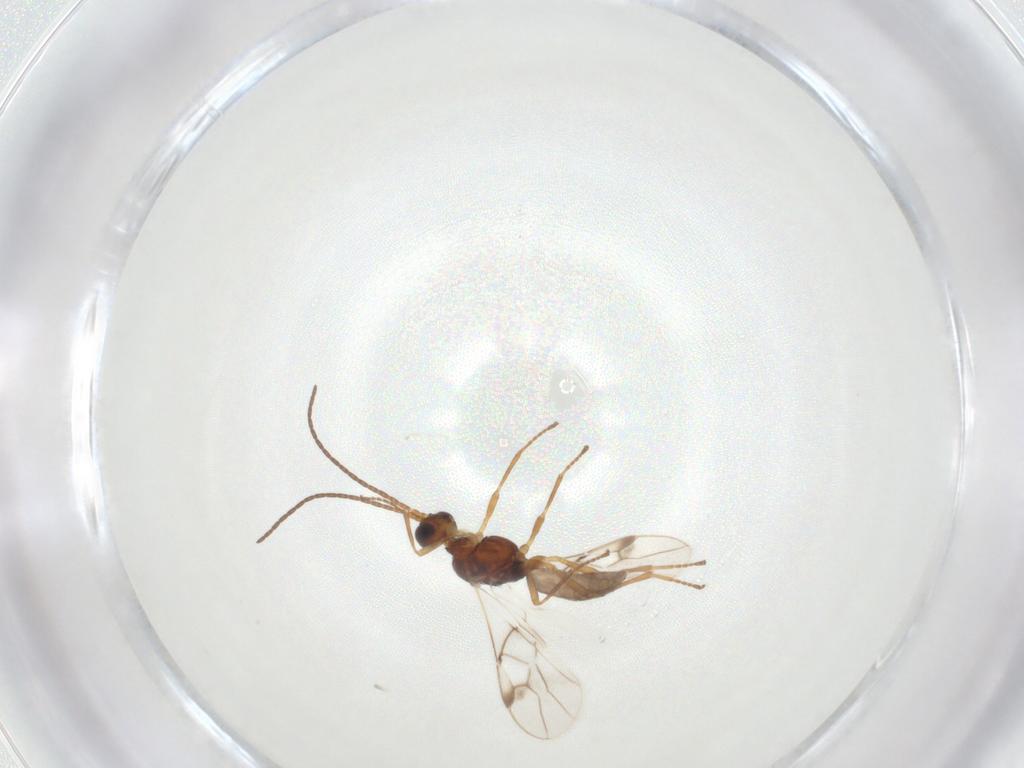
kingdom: Animalia
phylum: Arthropoda
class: Insecta
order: Hymenoptera
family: Braconidae
